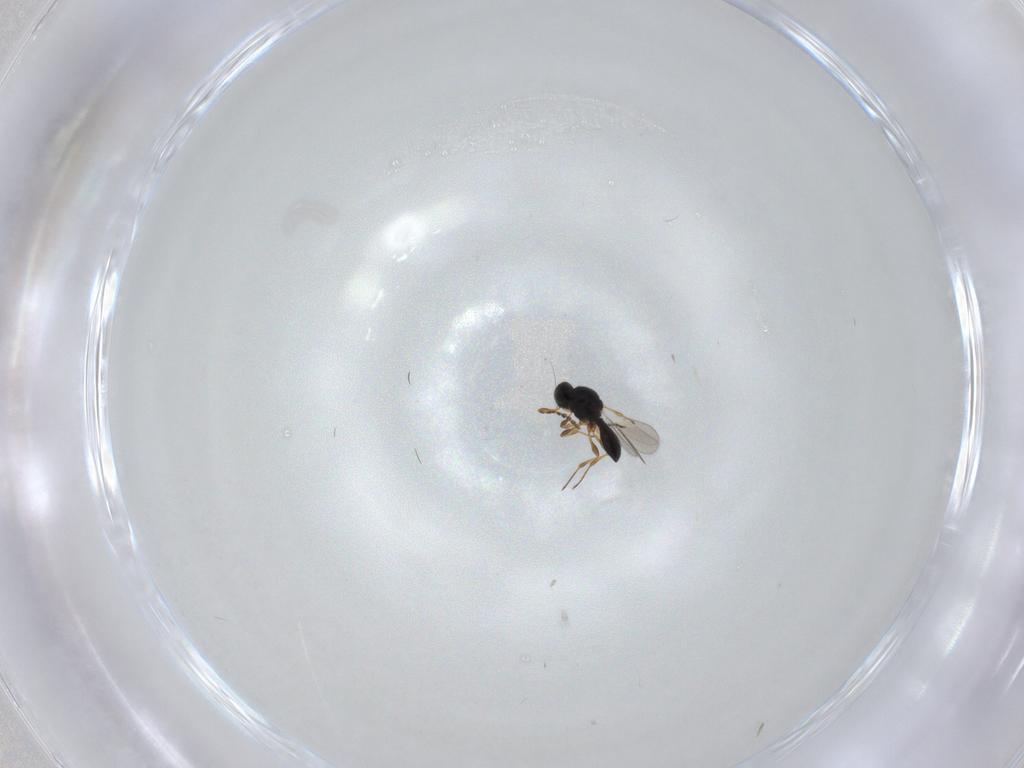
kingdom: Animalia
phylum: Arthropoda
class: Insecta
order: Hymenoptera
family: Platygastridae
